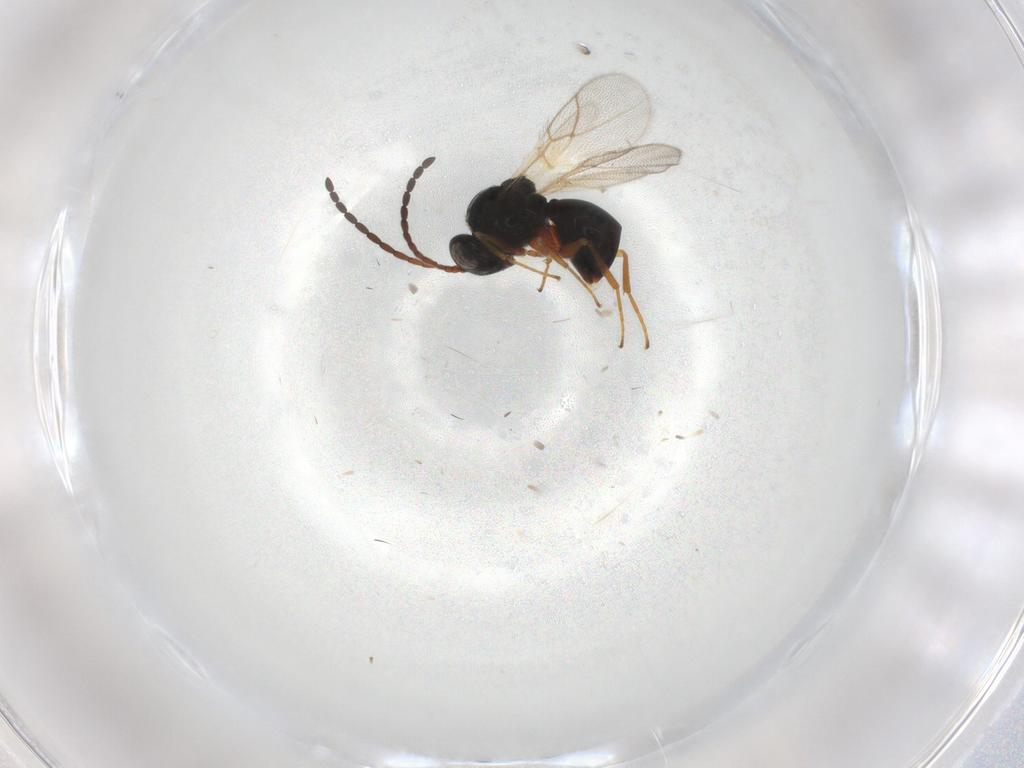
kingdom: Animalia
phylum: Arthropoda
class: Insecta
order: Hymenoptera
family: Figitidae
